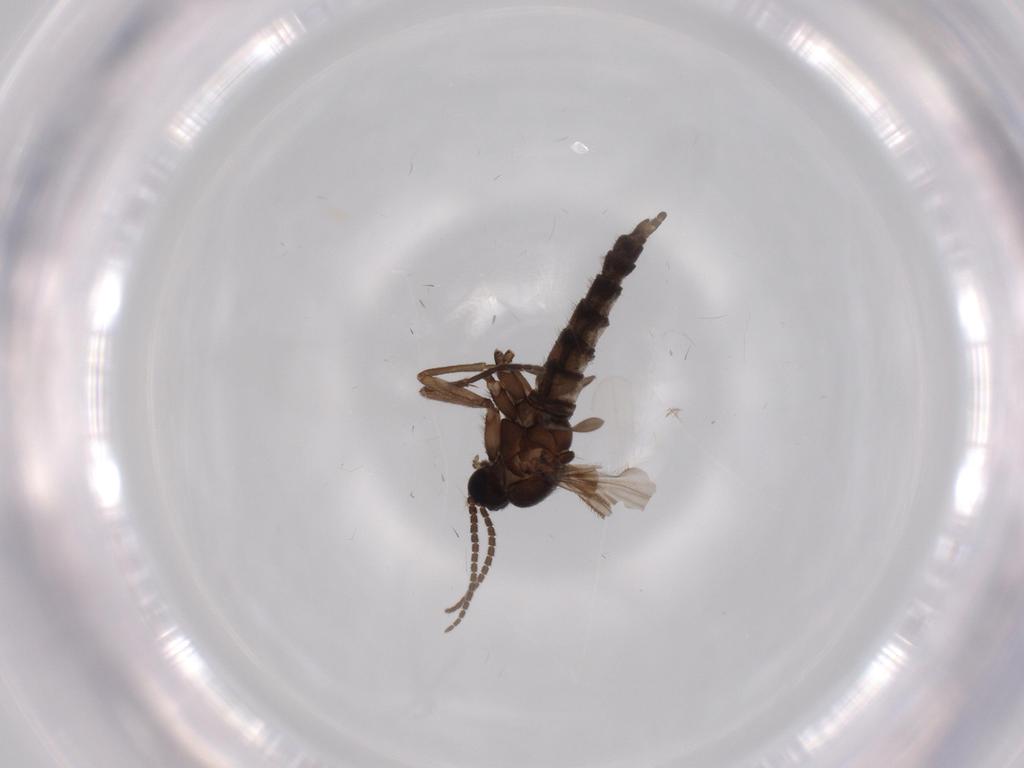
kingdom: Animalia
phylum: Arthropoda
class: Insecta
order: Diptera
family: Sciaridae
